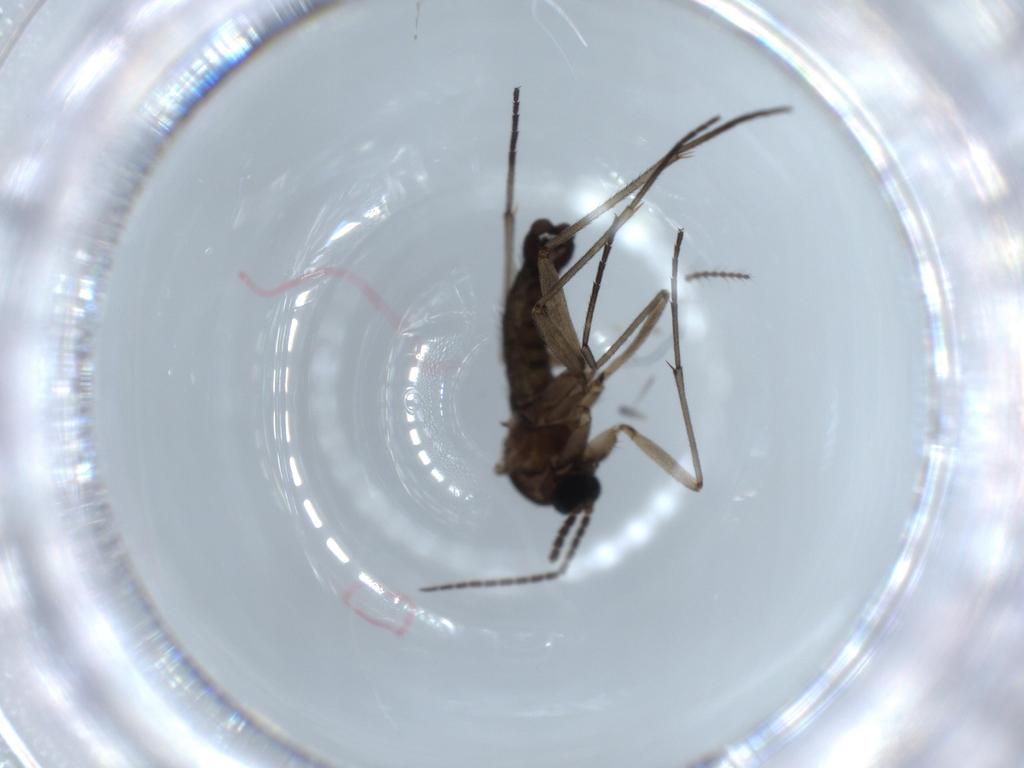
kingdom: Animalia
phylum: Arthropoda
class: Insecta
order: Diptera
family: Sciaridae
